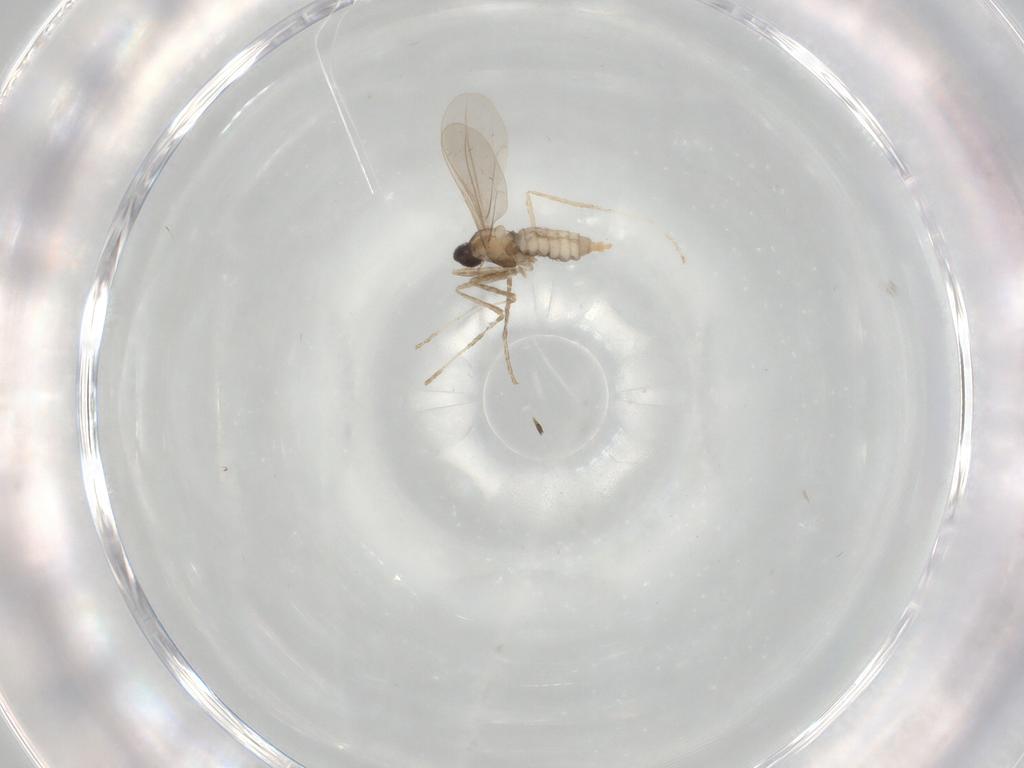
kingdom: Animalia
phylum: Arthropoda
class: Insecta
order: Diptera
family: Cecidomyiidae
